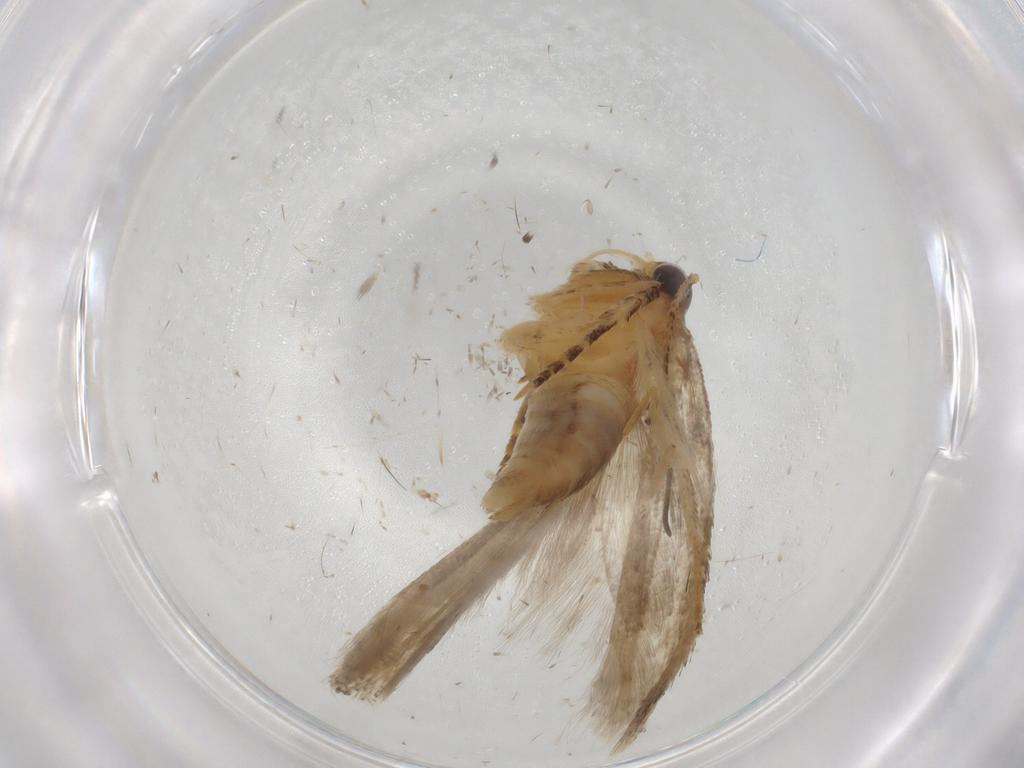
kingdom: Animalia
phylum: Arthropoda
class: Insecta
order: Lepidoptera
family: Gelechiidae
